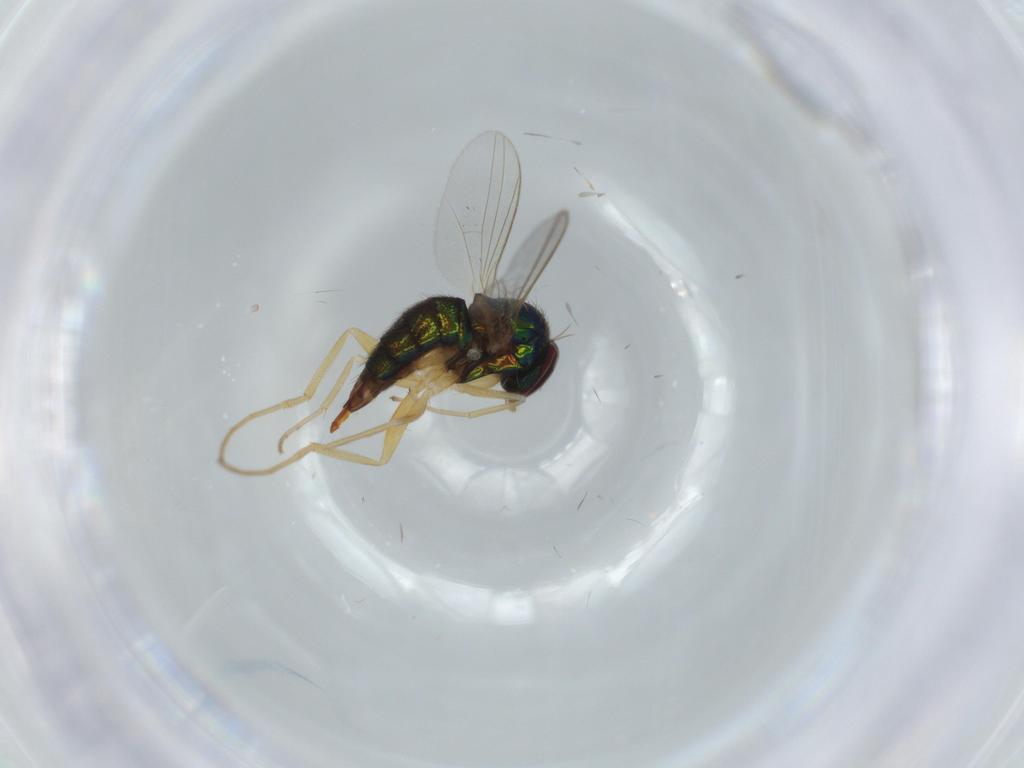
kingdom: Animalia
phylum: Arthropoda
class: Insecta
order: Diptera
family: Dolichopodidae
